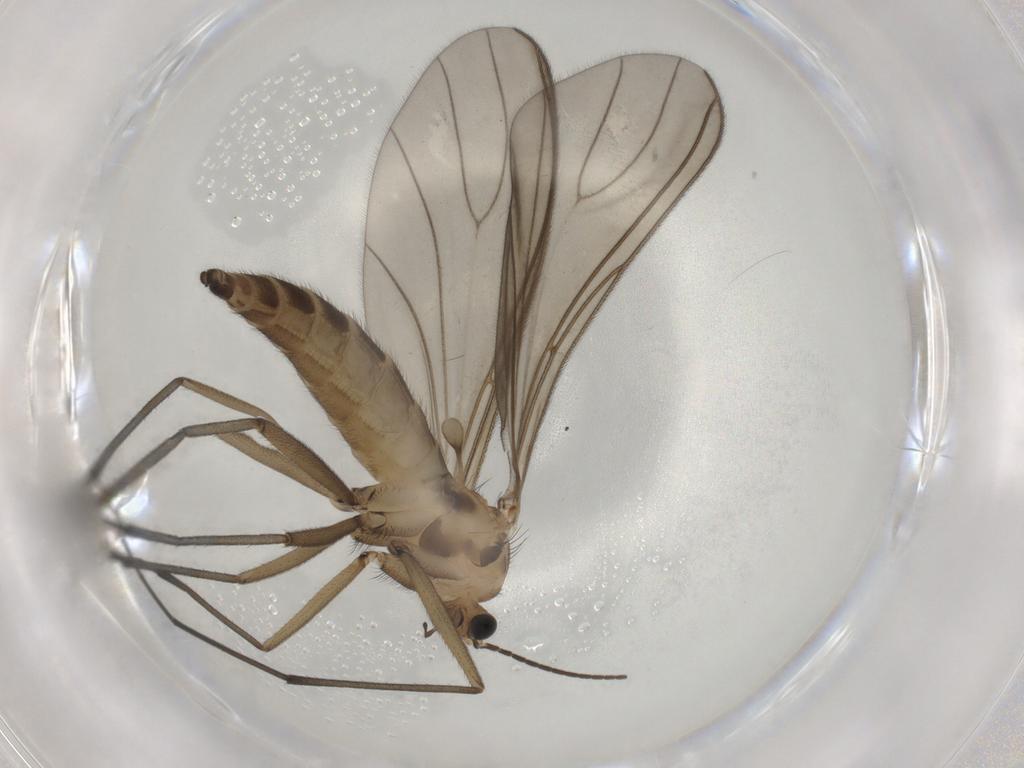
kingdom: Animalia
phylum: Arthropoda
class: Insecta
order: Diptera
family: Sciaridae
